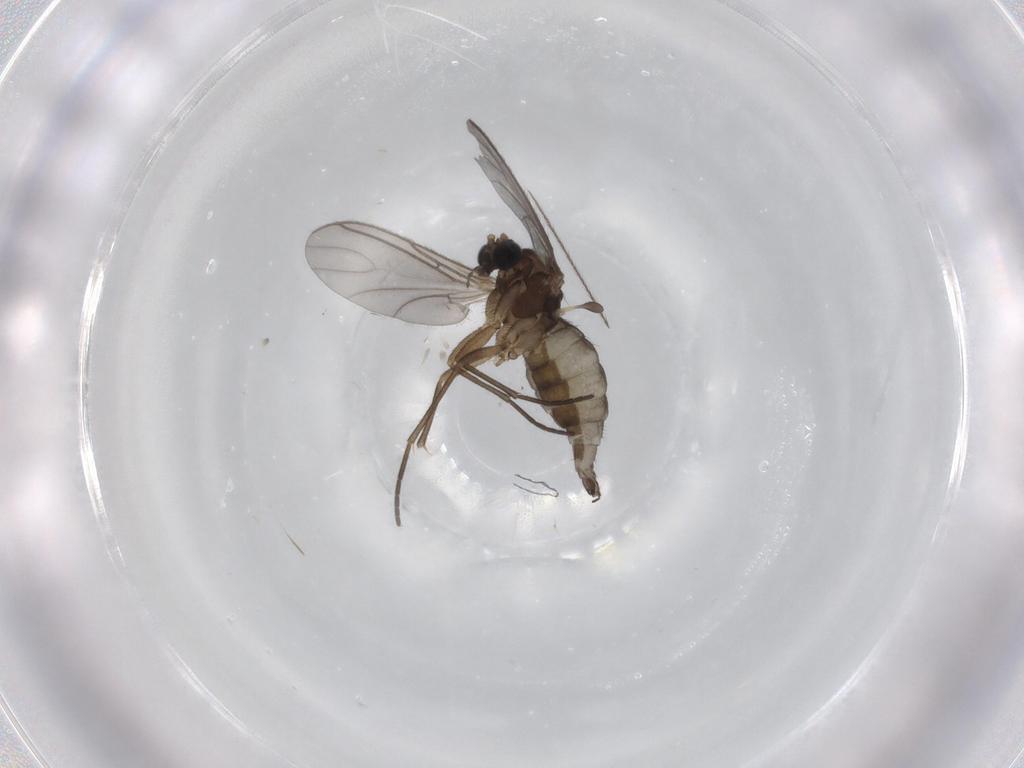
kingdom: Animalia
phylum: Arthropoda
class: Insecta
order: Diptera
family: Sciaridae
